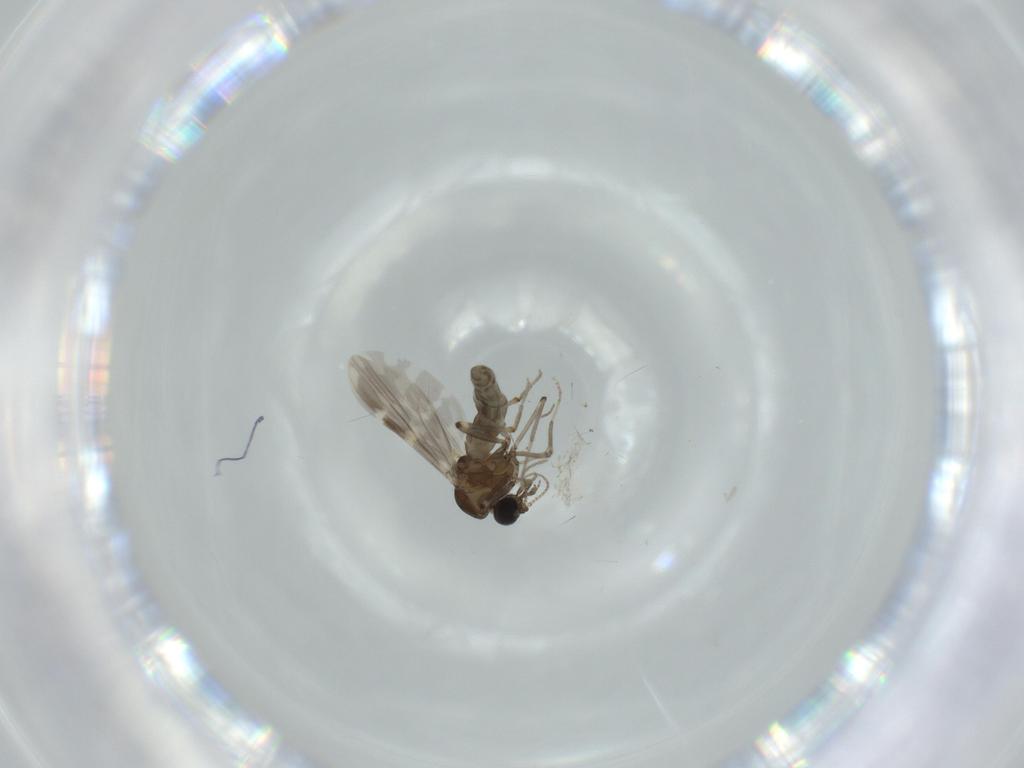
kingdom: Animalia
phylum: Arthropoda
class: Insecta
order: Diptera
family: Ceratopogonidae
